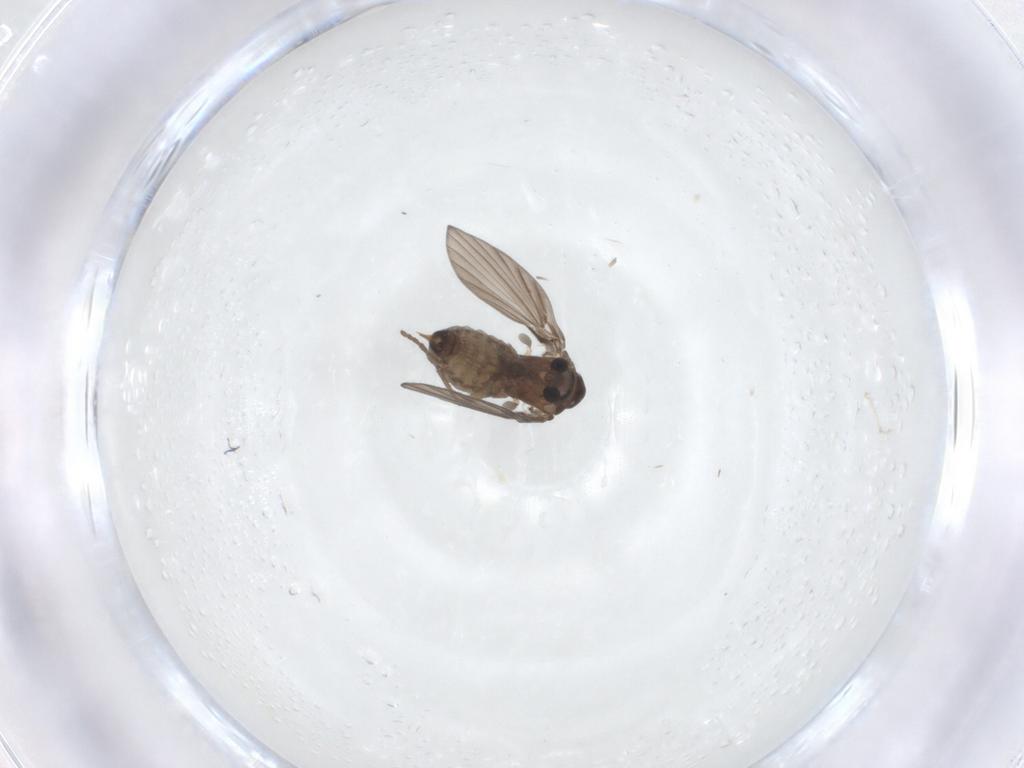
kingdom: Animalia
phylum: Arthropoda
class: Insecta
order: Diptera
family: Psychodidae
